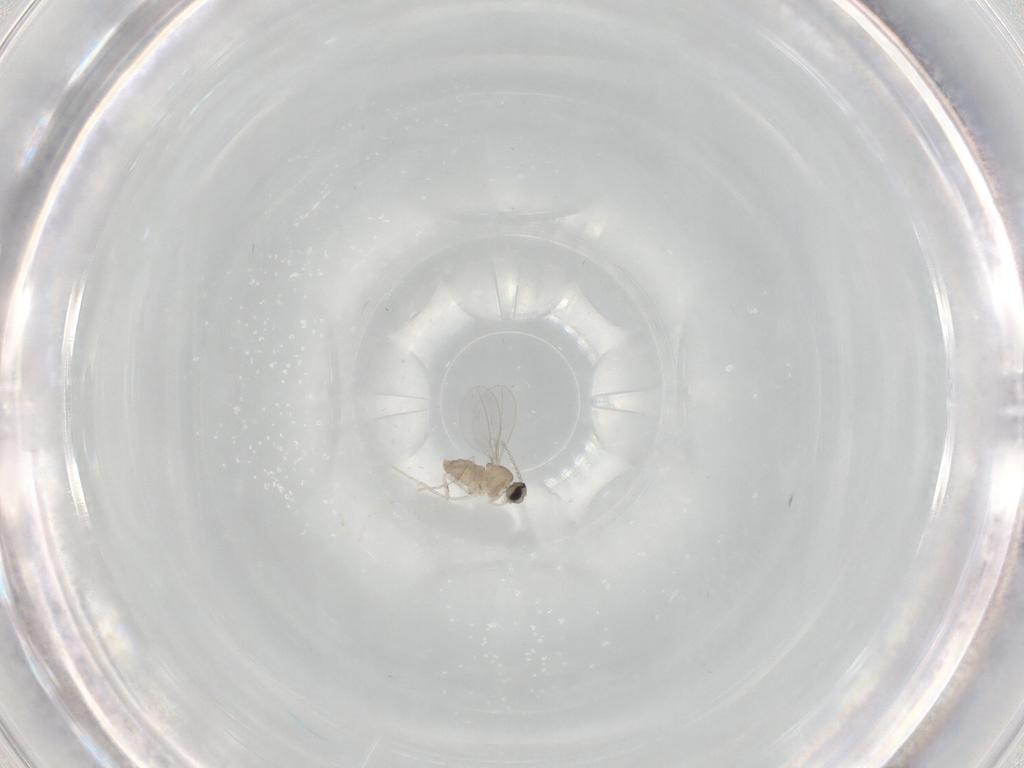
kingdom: Animalia
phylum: Arthropoda
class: Insecta
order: Diptera
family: Cecidomyiidae
